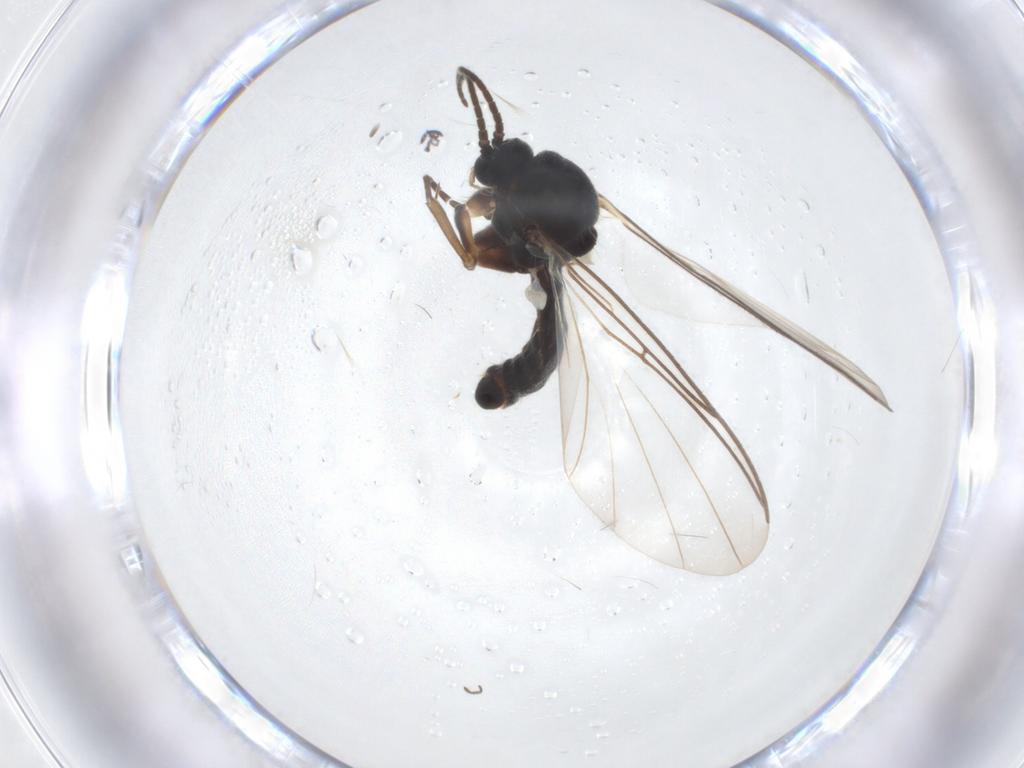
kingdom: Animalia
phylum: Arthropoda
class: Insecta
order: Diptera
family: Mycetophilidae
